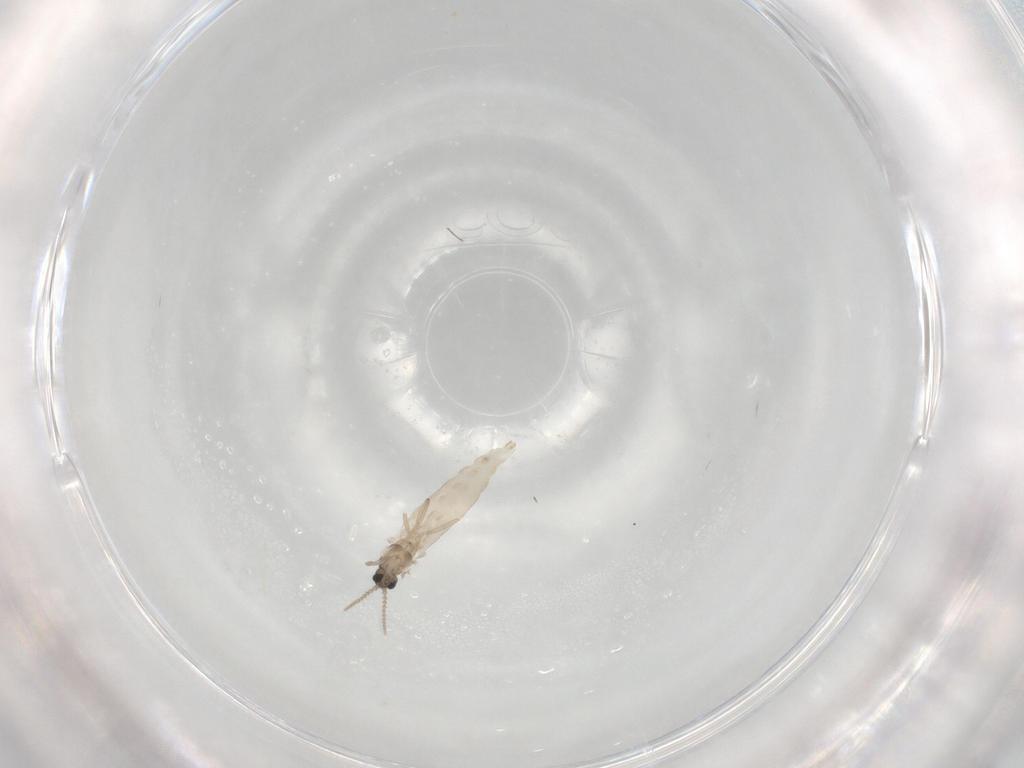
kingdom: Animalia
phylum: Arthropoda
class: Insecta
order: Diptera
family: Cecidomyiidae
